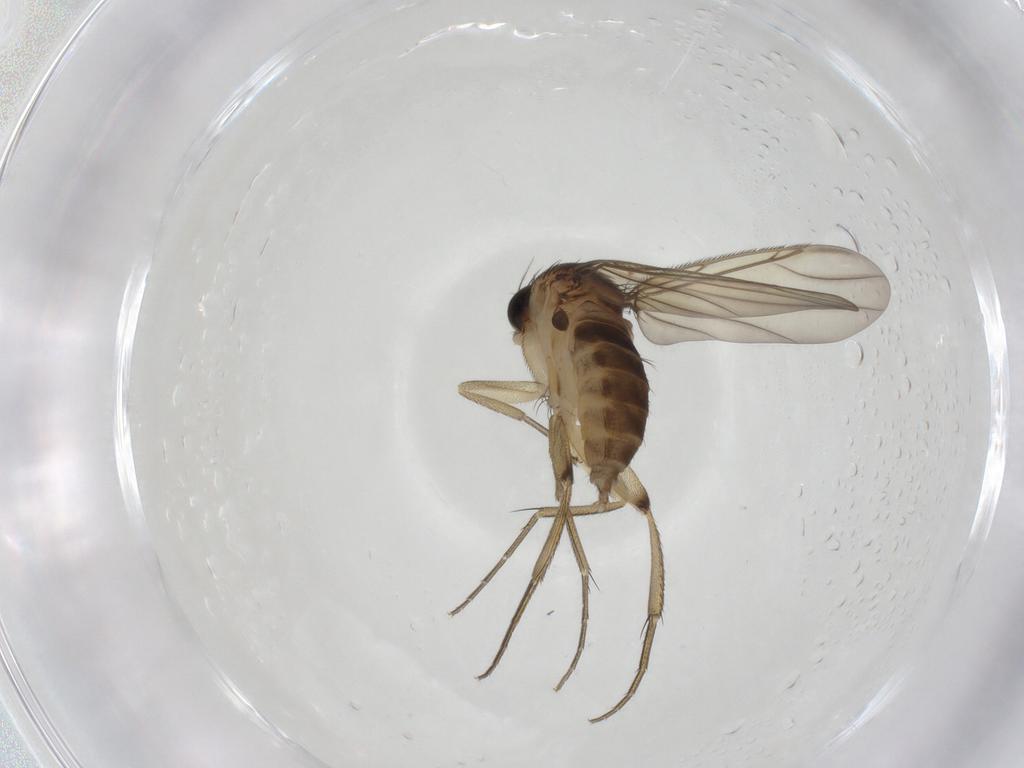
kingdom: Animalia
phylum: Arthropoda
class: Insecta
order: Diptera
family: Phoridae
